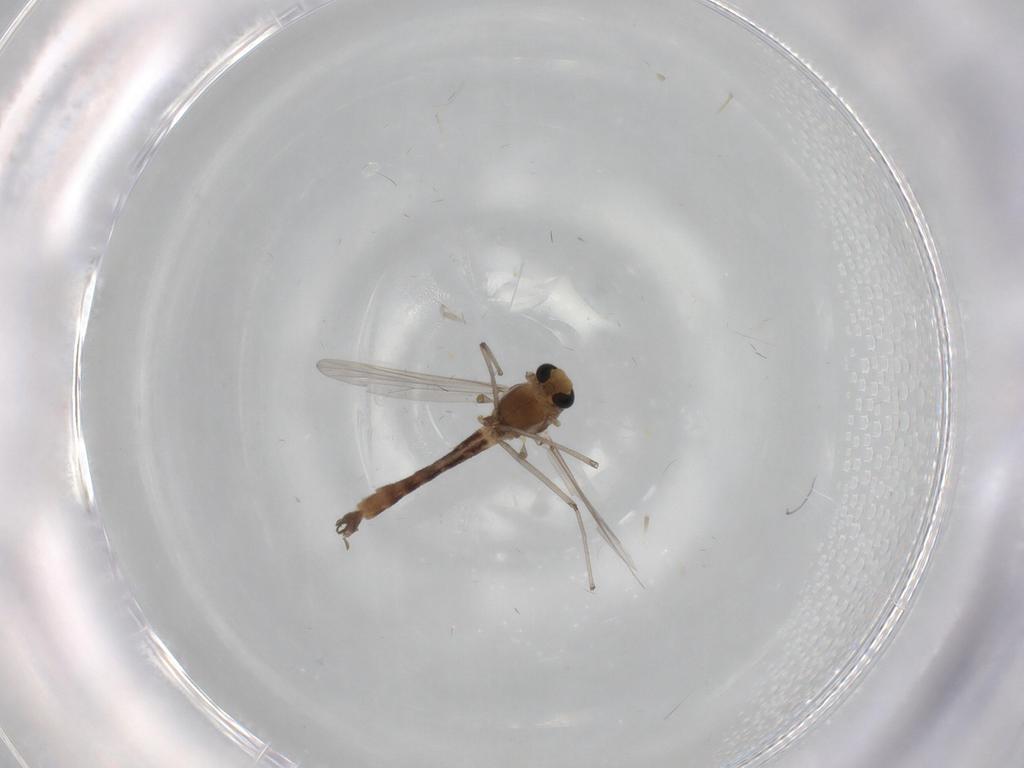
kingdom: Animalia
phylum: Arthropoda
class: Insecta
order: Diptera
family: Chironomidae
